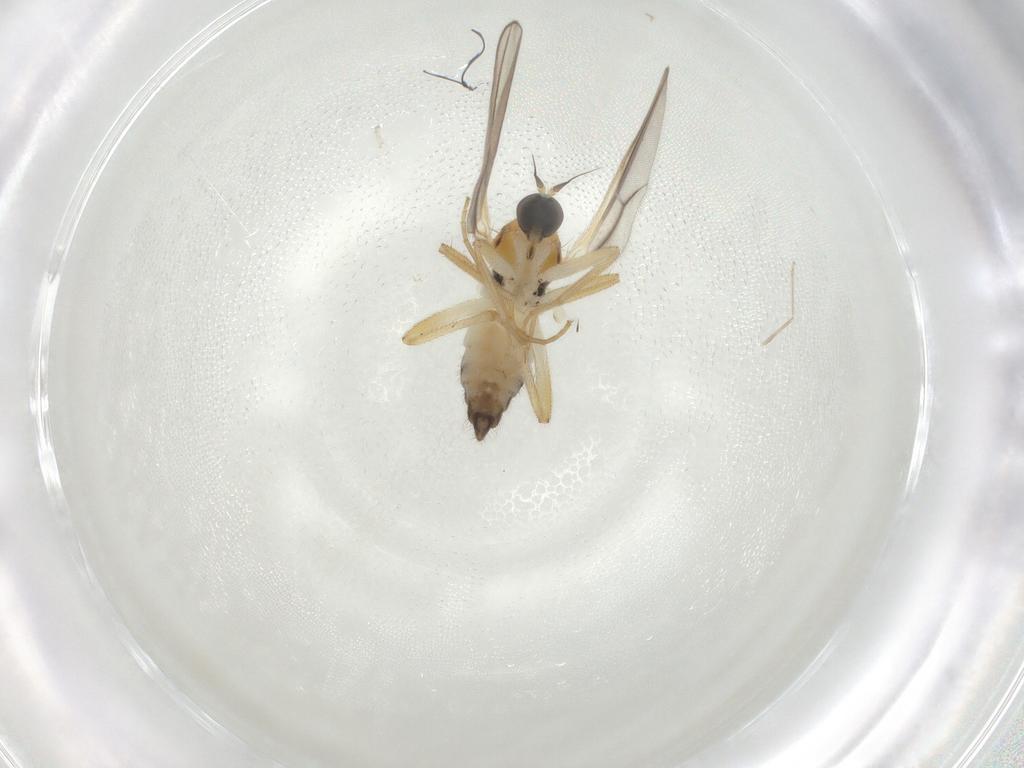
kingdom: Animalia
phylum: Arthropoda
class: Insecta
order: Diptera
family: Hybotidae
